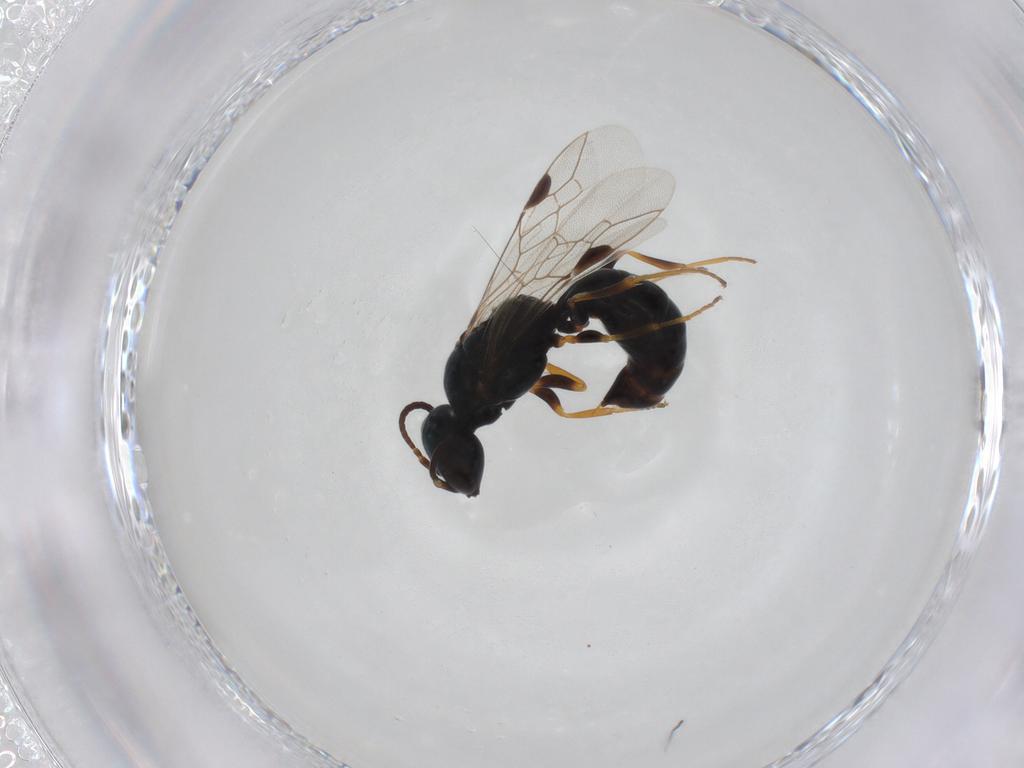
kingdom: Animalia
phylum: Arthropoda
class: Insecta
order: Hymenoptera
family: Pemphredonidae
